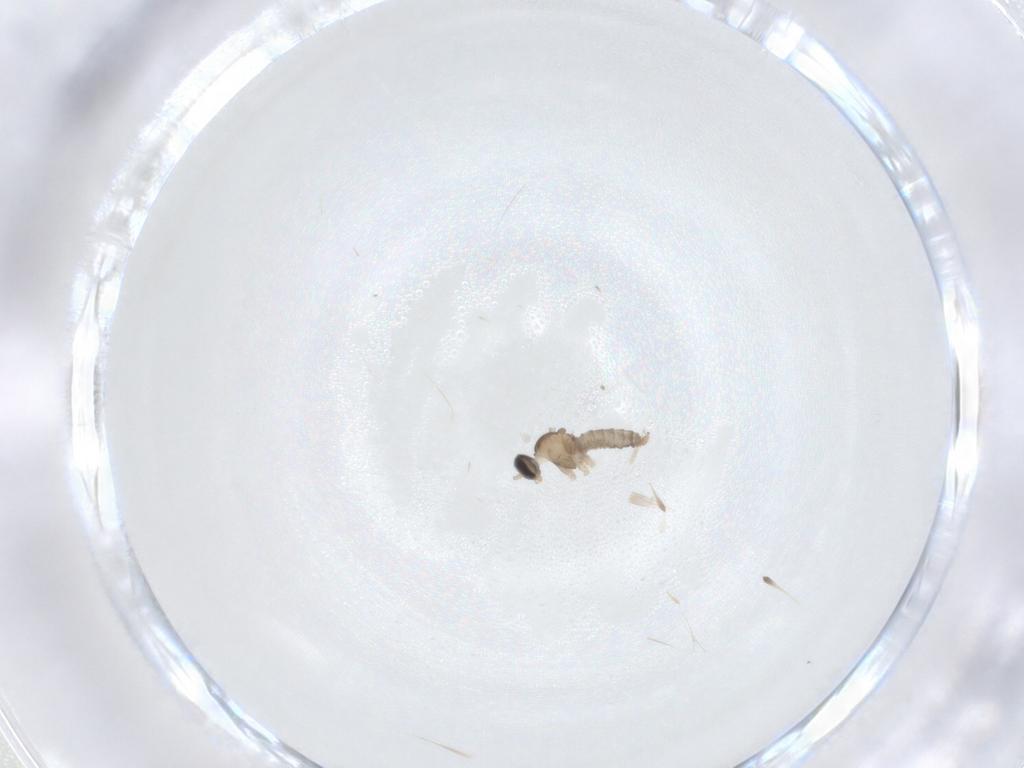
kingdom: Animalia
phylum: Arthropoda
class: Insecta
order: Diptera
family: Cecidomyiidae
